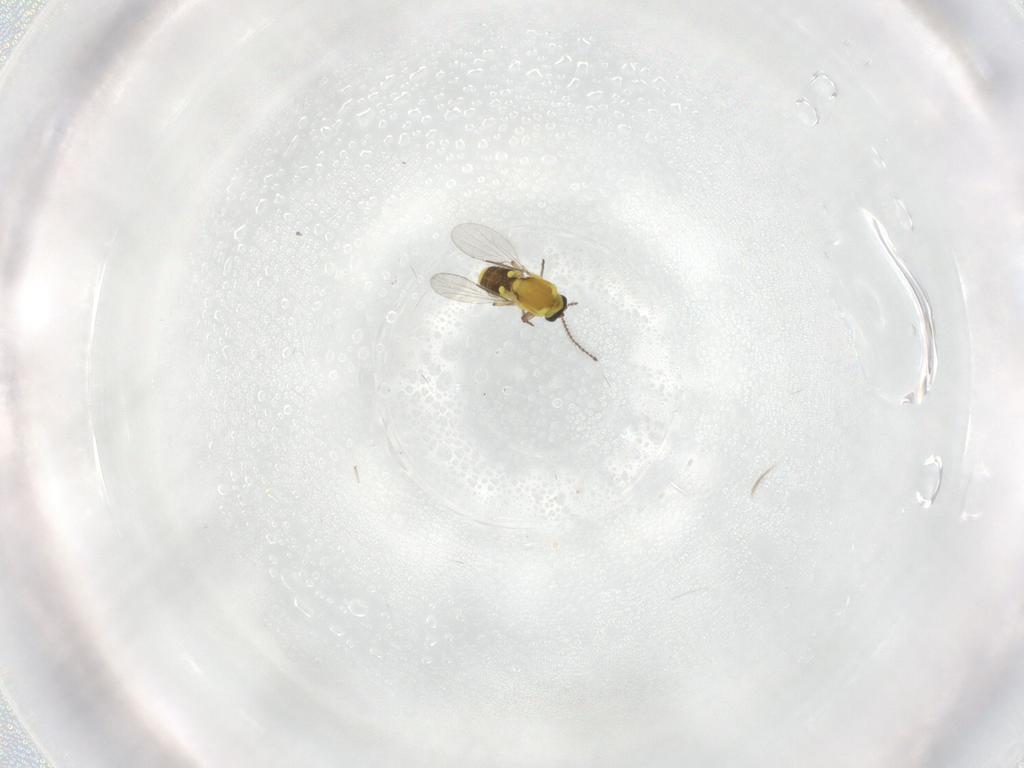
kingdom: Animalia
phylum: Arthropoda
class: Insecta
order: Diptera
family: Cecidomyiidae
